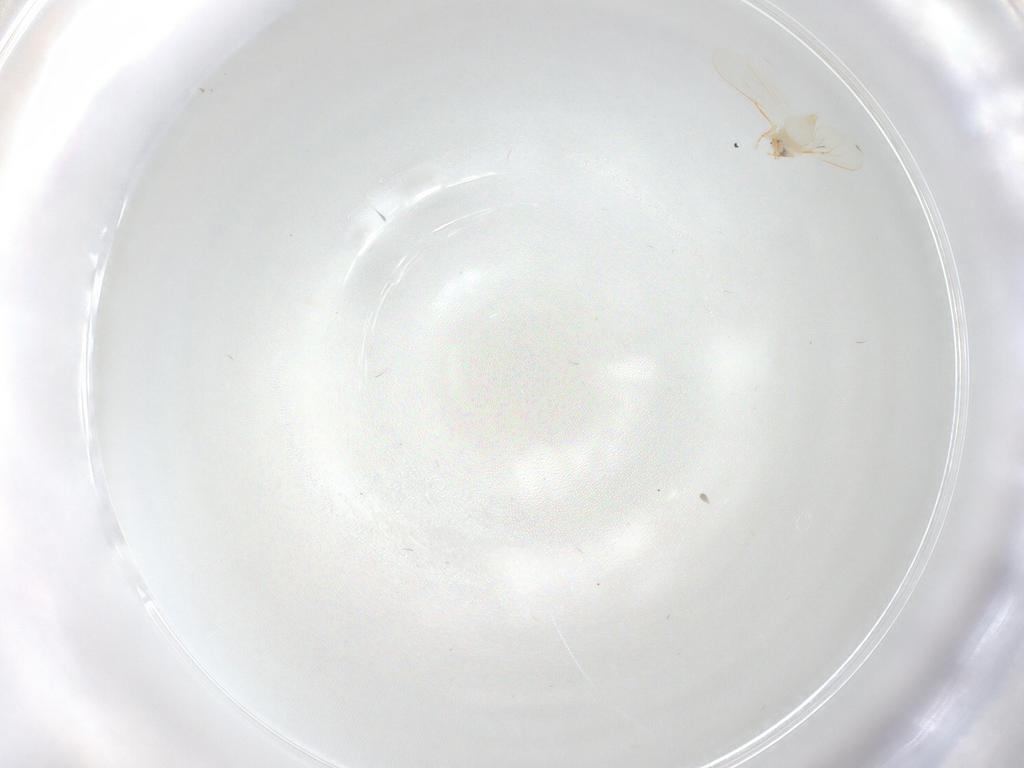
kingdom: Animalia
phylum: Arthropoda
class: Insecta
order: Hemiptera
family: Aleyrodidae
